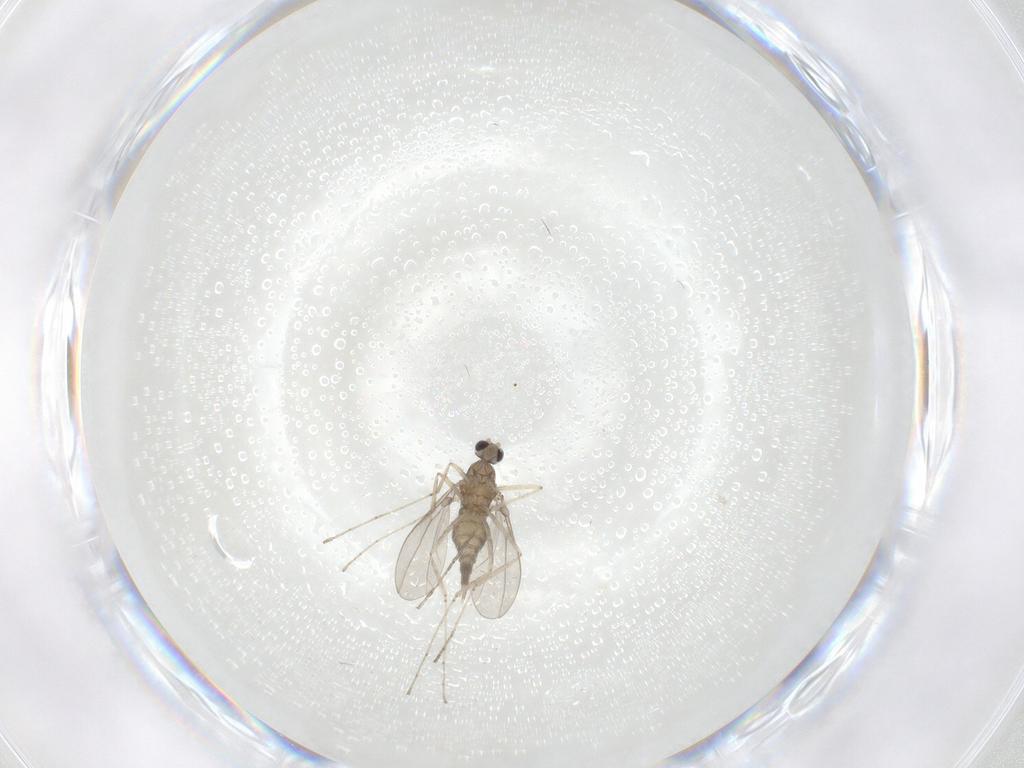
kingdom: Animalia
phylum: Arthropoda
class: Insecta
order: Diptera
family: Cecidomyiidae
